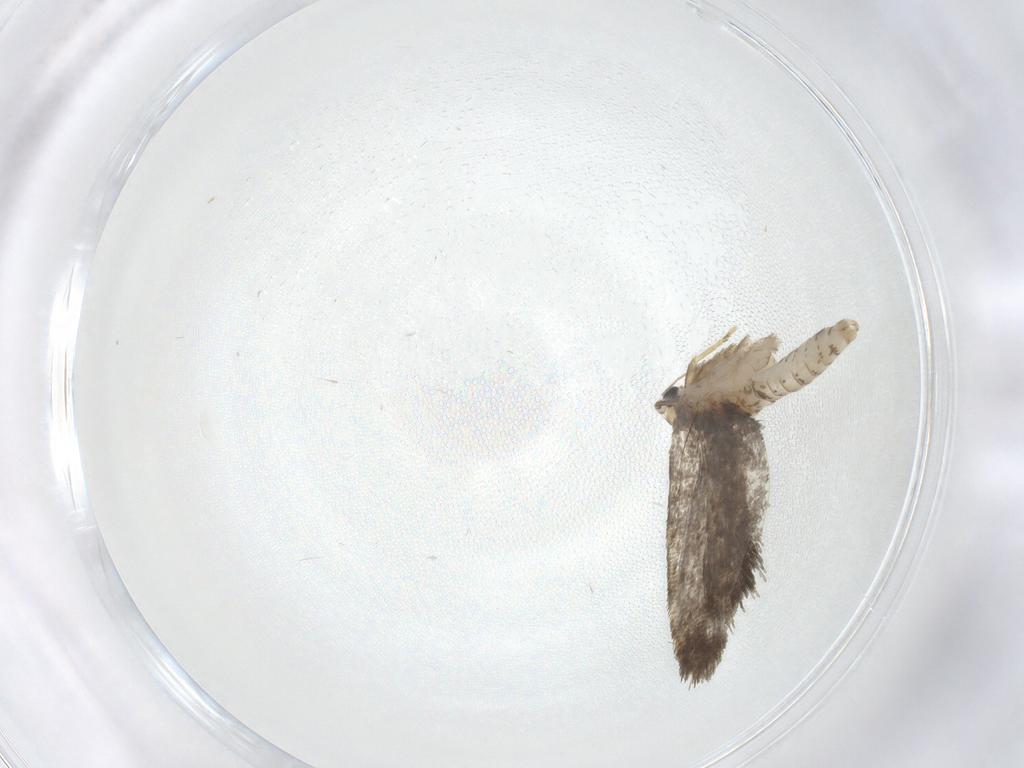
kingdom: Animalia
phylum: Arthropoda
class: Insecta
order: Lepidoptera
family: Psychidae
